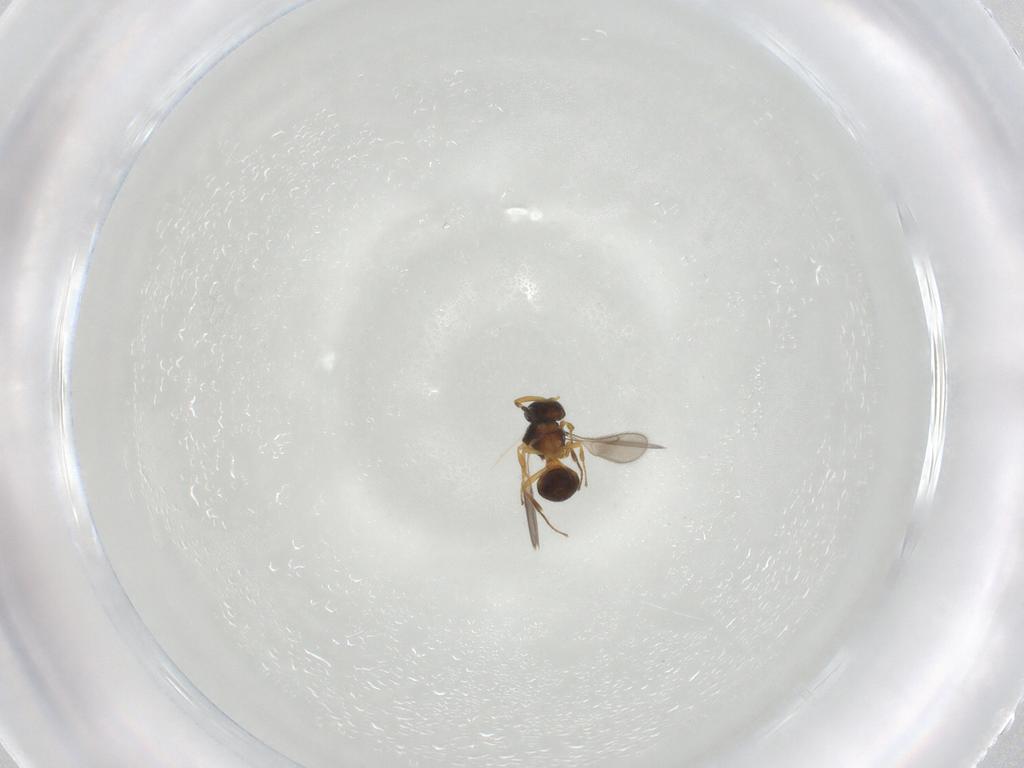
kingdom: Animalia
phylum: Arthropoda
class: Insecta
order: Hymenoptera
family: Scelionidae
